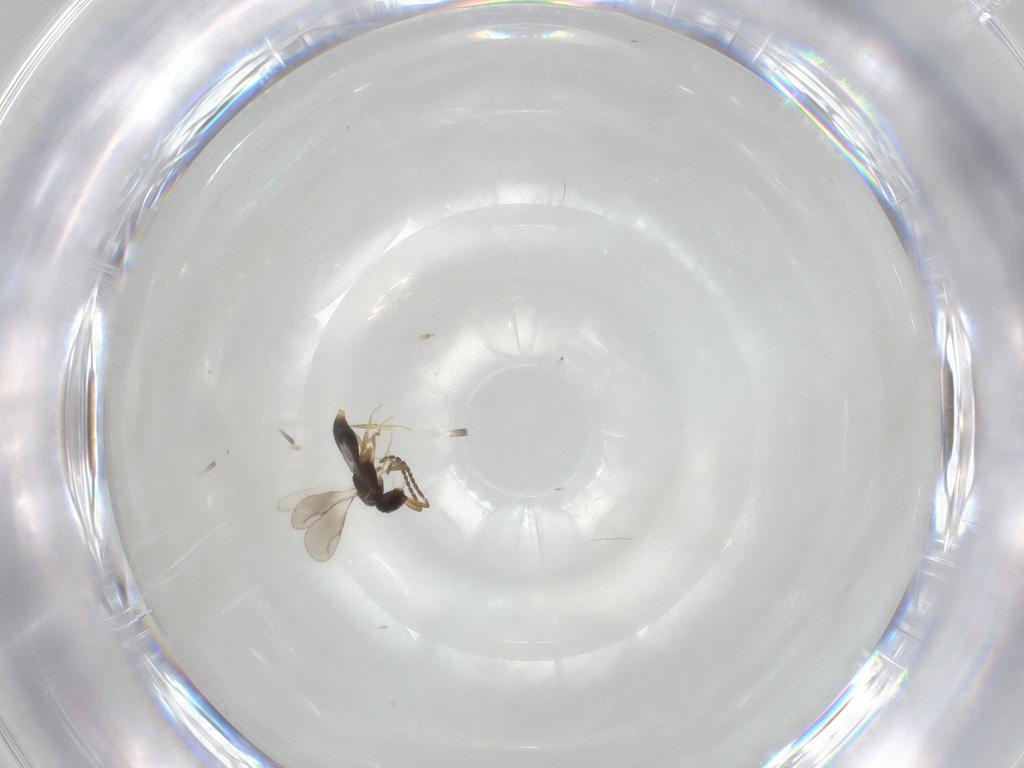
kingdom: Animalia
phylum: Arthropoda
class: Insecta
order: Hymenoptera
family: Ceraphronidae
